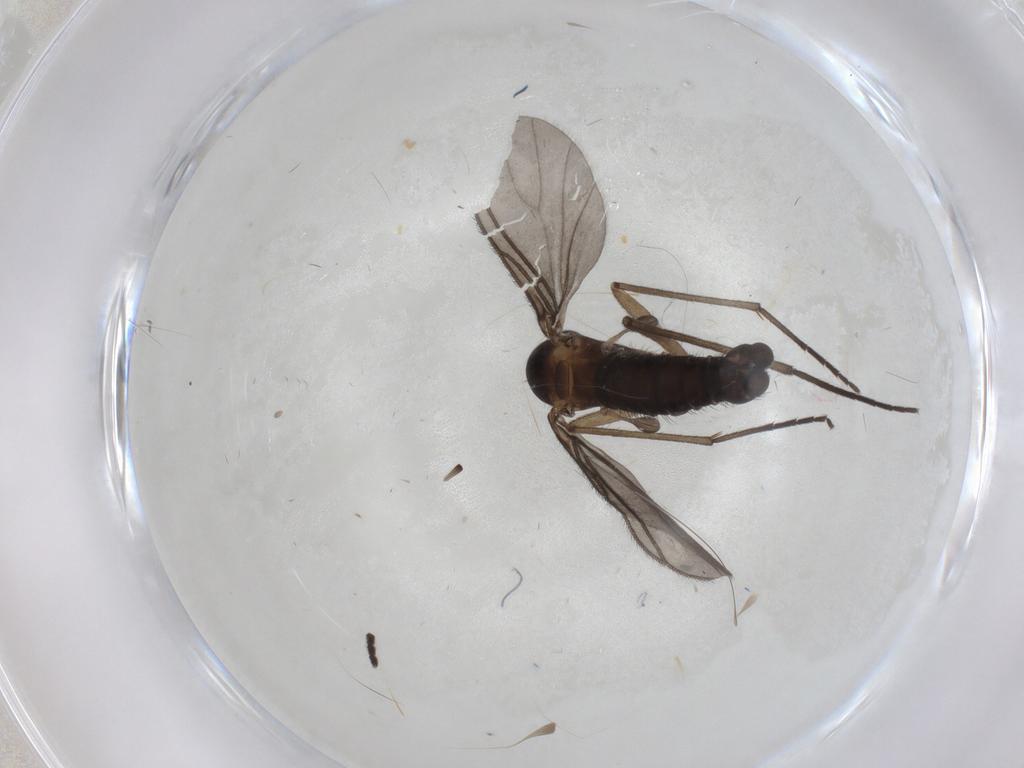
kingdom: Animalia
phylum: Arthropoda
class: Insecta
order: Diptera
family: Sciaridae
